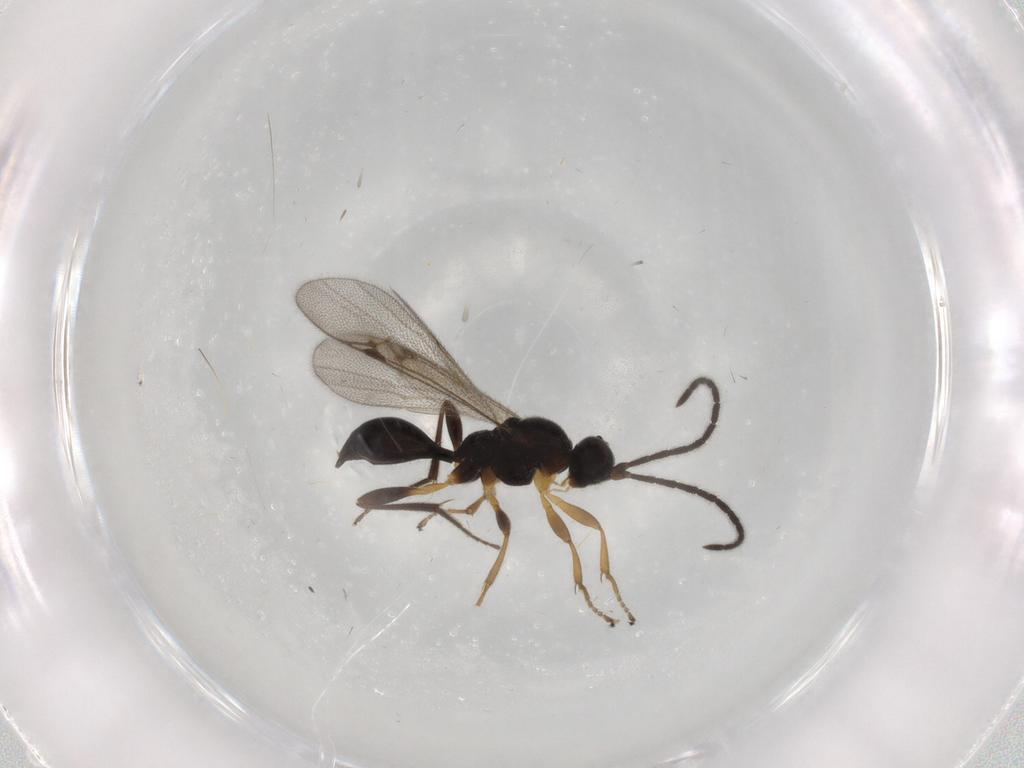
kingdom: Animalia
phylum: Arthropoda
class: Insecta
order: Hymenoptera
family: Proctotrupidae
